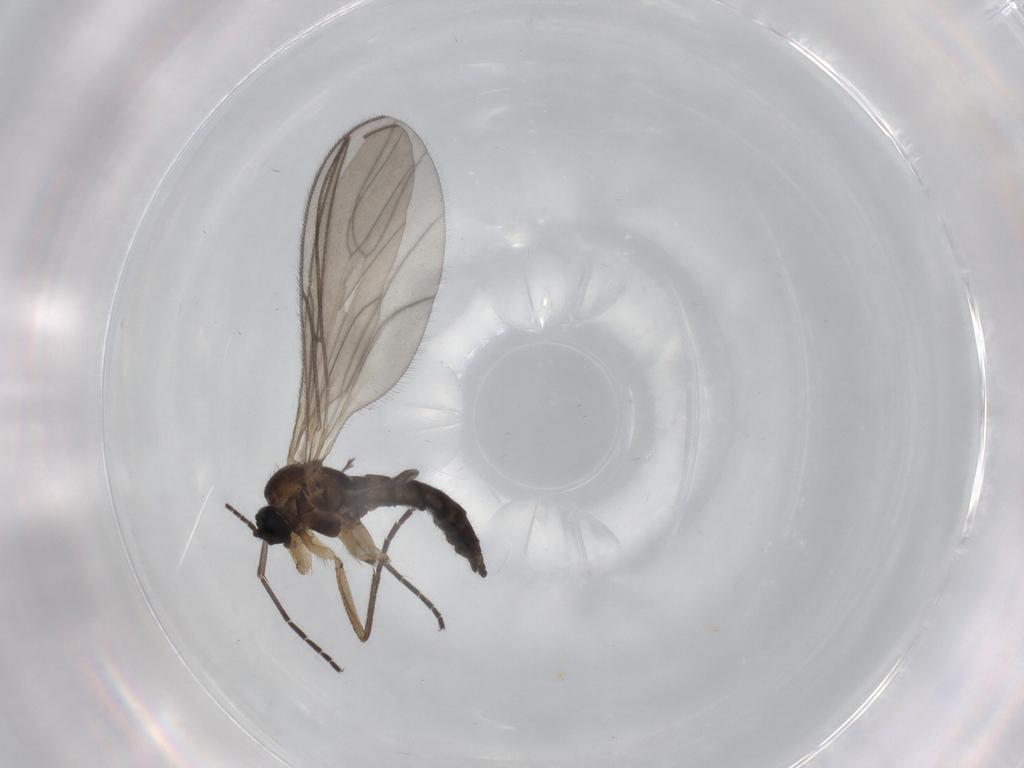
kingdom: Animalia
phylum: Arthropoda
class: Insecta
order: Diptera
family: Sciaridae
